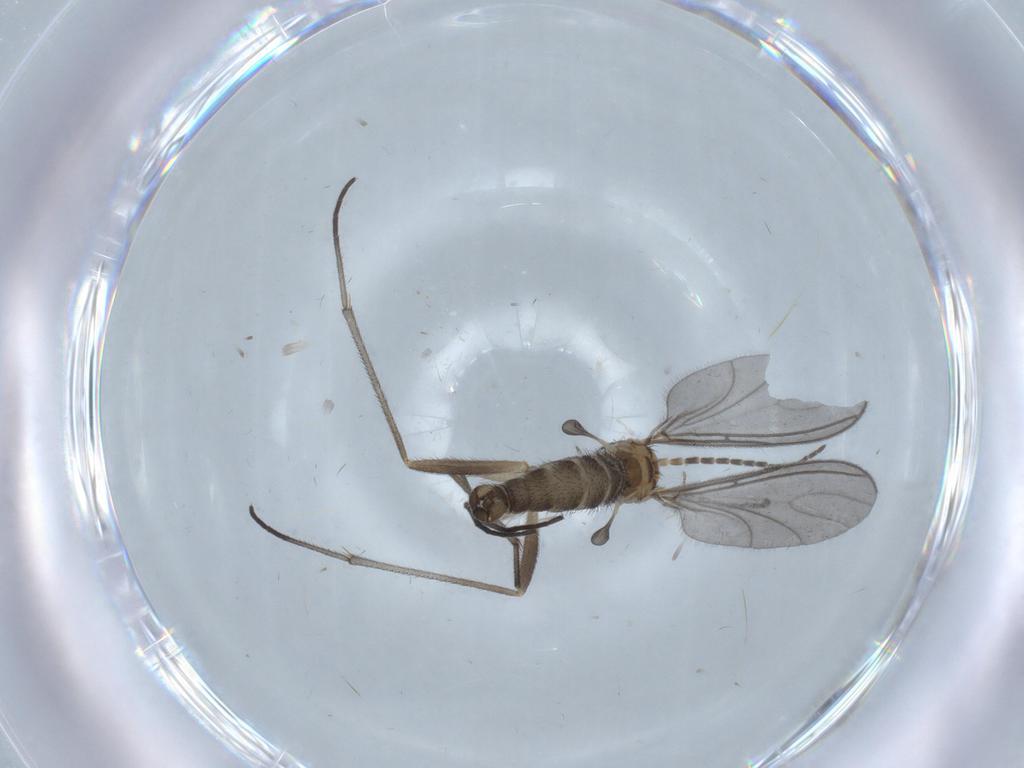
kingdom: Animalia
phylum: Arthropoda
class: Insecta
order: Diptera
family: Sciaridae
